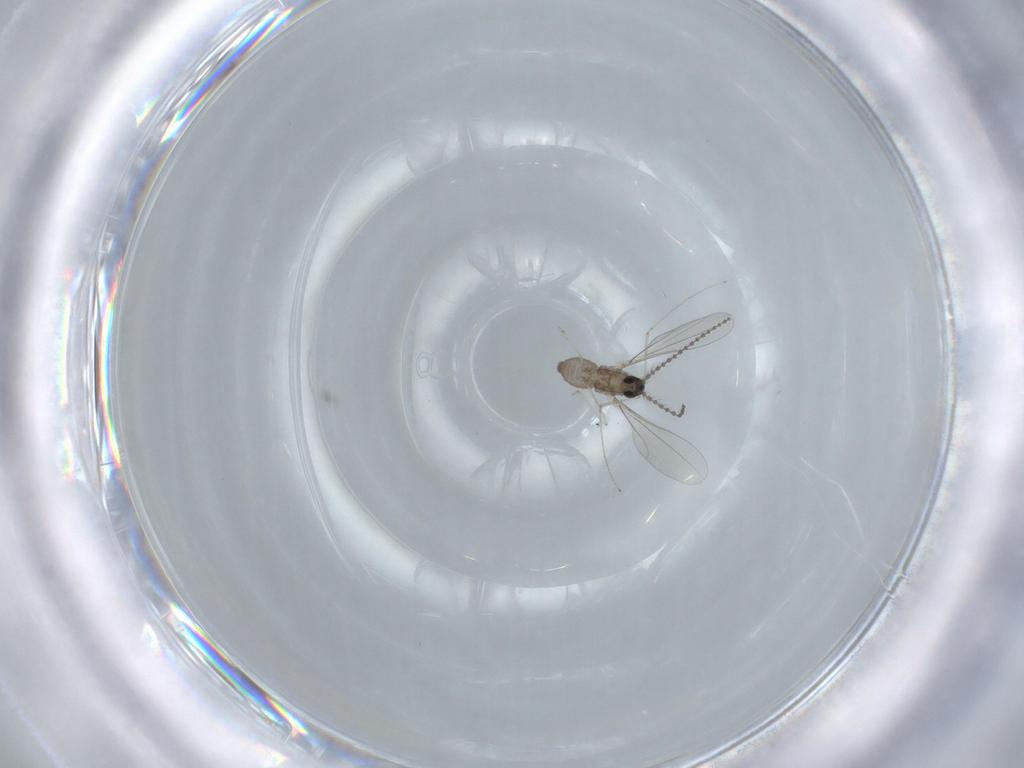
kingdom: Animalia
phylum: Arthropoda
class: Insecta
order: Diptera
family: Cecidomyiidae
